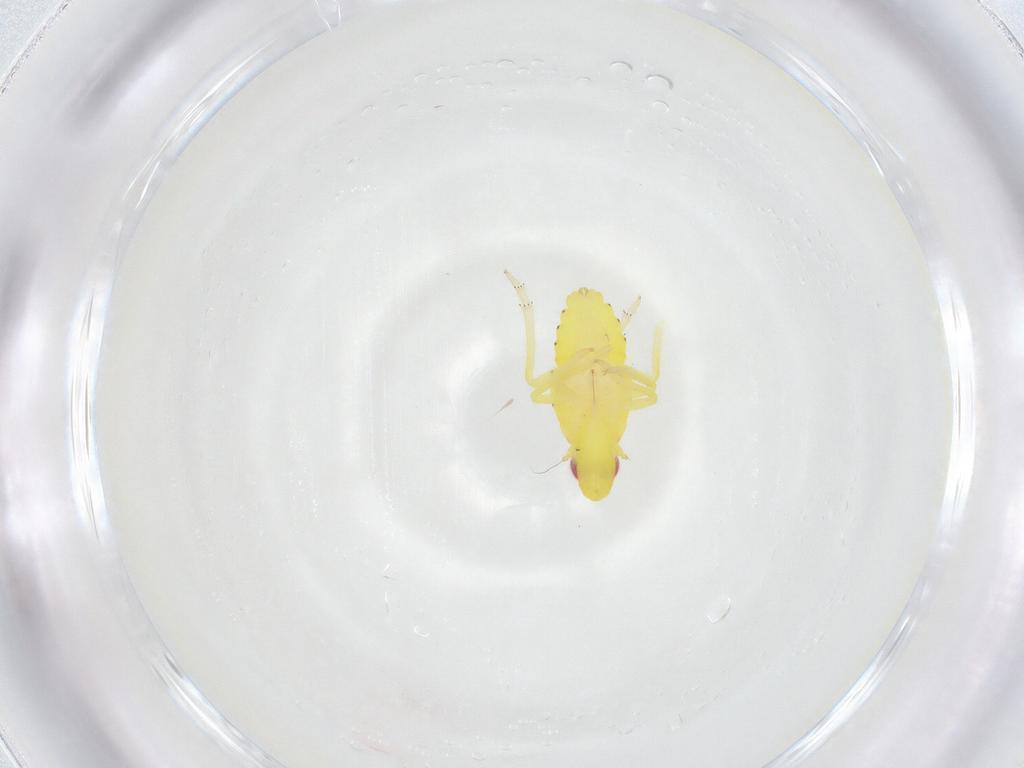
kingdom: Animalia
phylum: Arthropoda
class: Insecta
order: Hemiptera
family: Tropiduchidae
